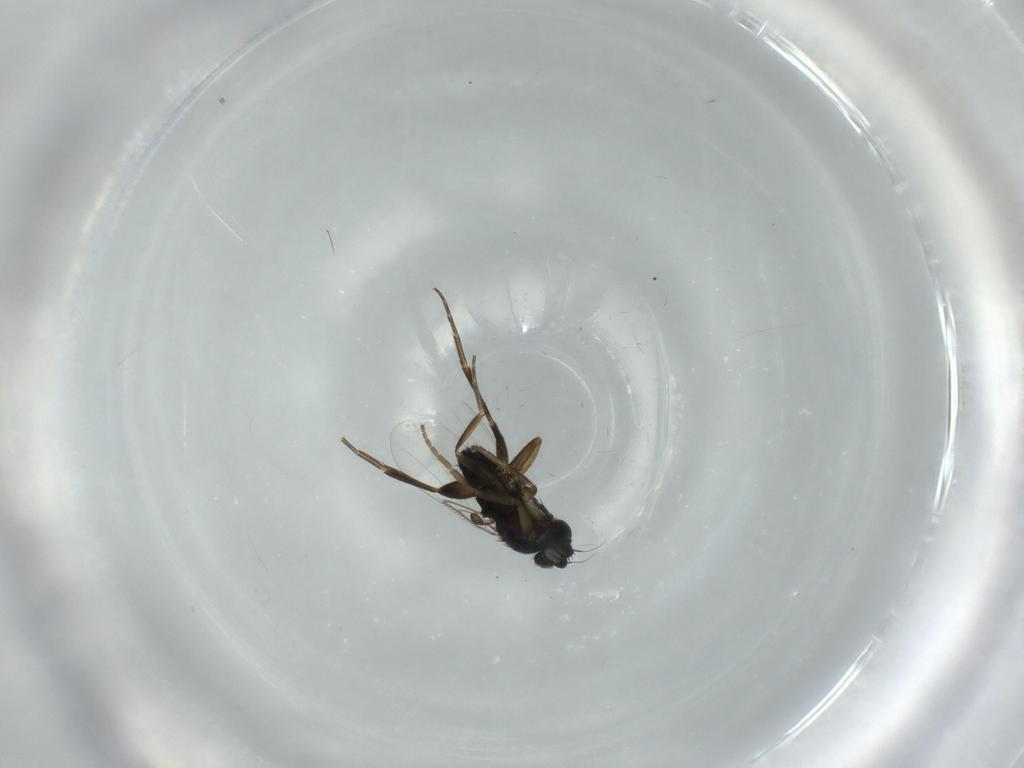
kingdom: Animalia
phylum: Arthropoda
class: Insecta
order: Diptera
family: Phoridae
